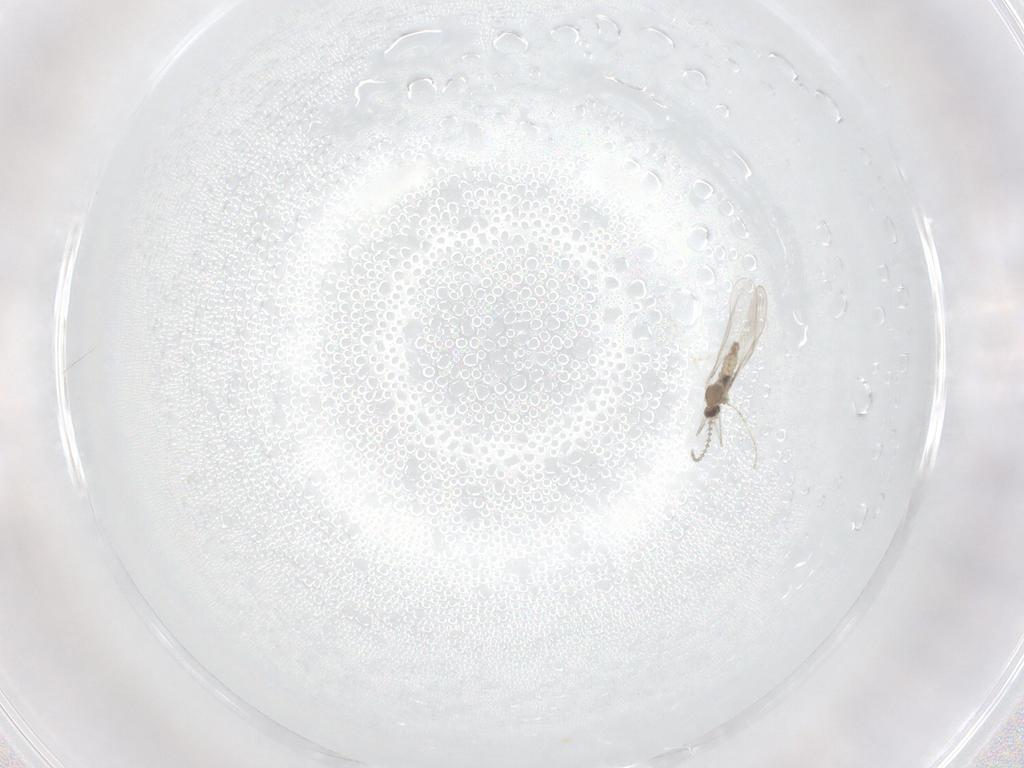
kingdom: Animalia
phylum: Arthropoda
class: Insecta
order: Diptera
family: Cecidomyiidae
